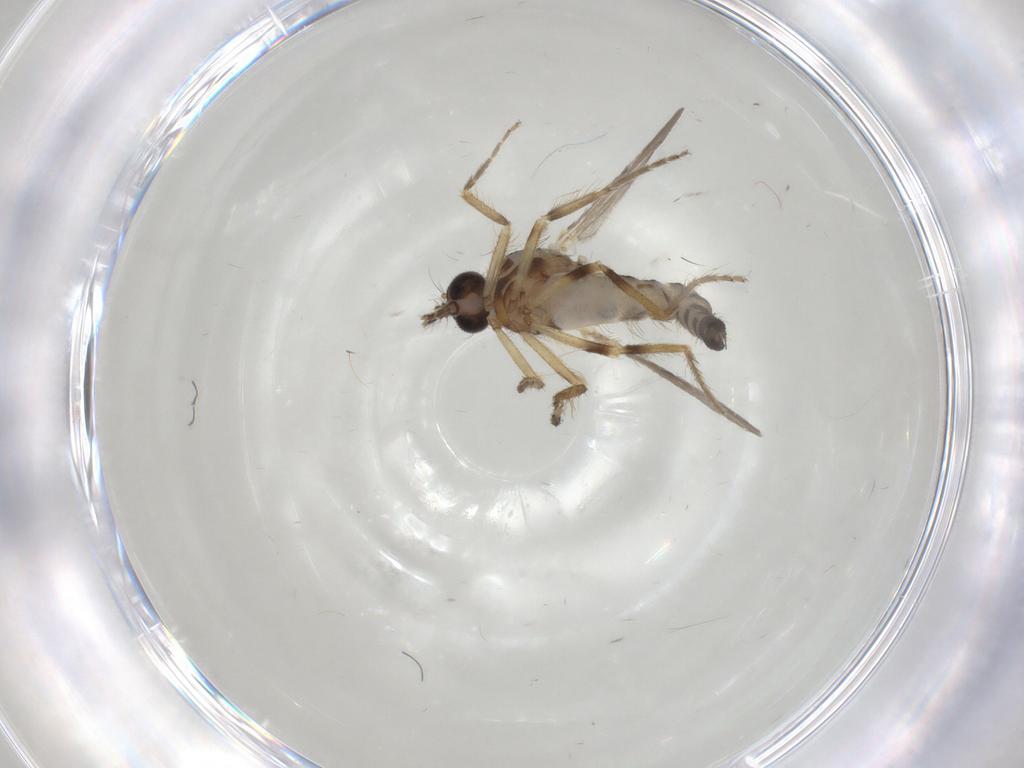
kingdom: Animalia
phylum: Arthropoda
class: Insecta
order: Diptera
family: Ceratopogonidae
